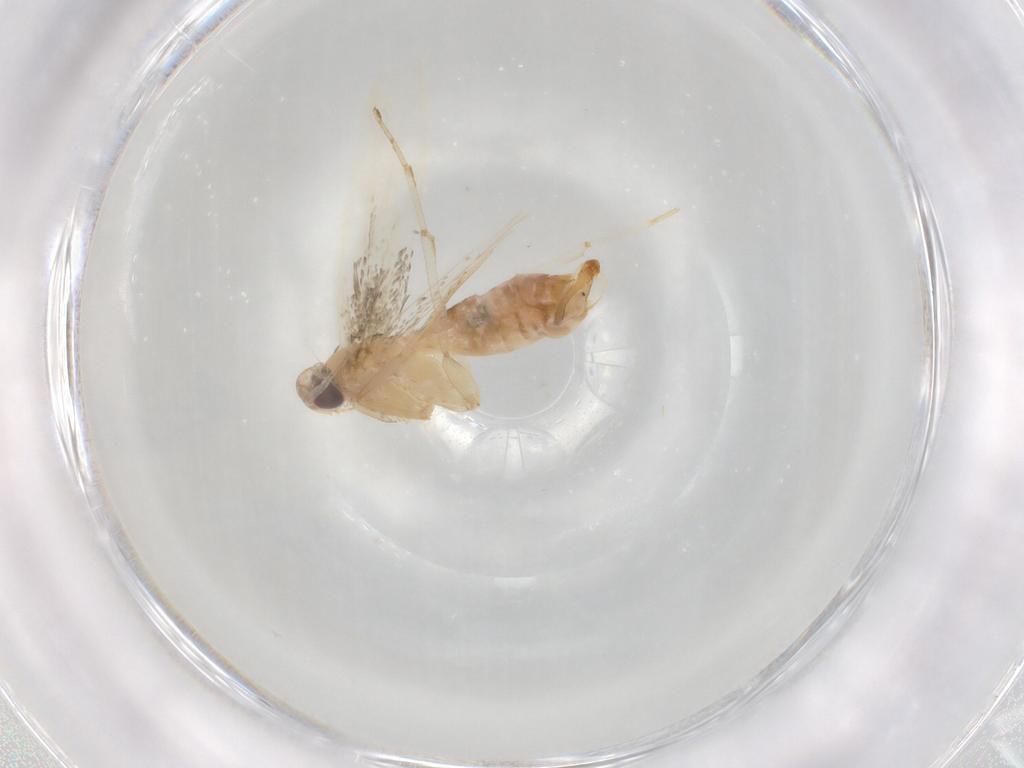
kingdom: Animalia
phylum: Arthropoda
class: Insecta
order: Lepidoptera
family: Cosmopterigidae
